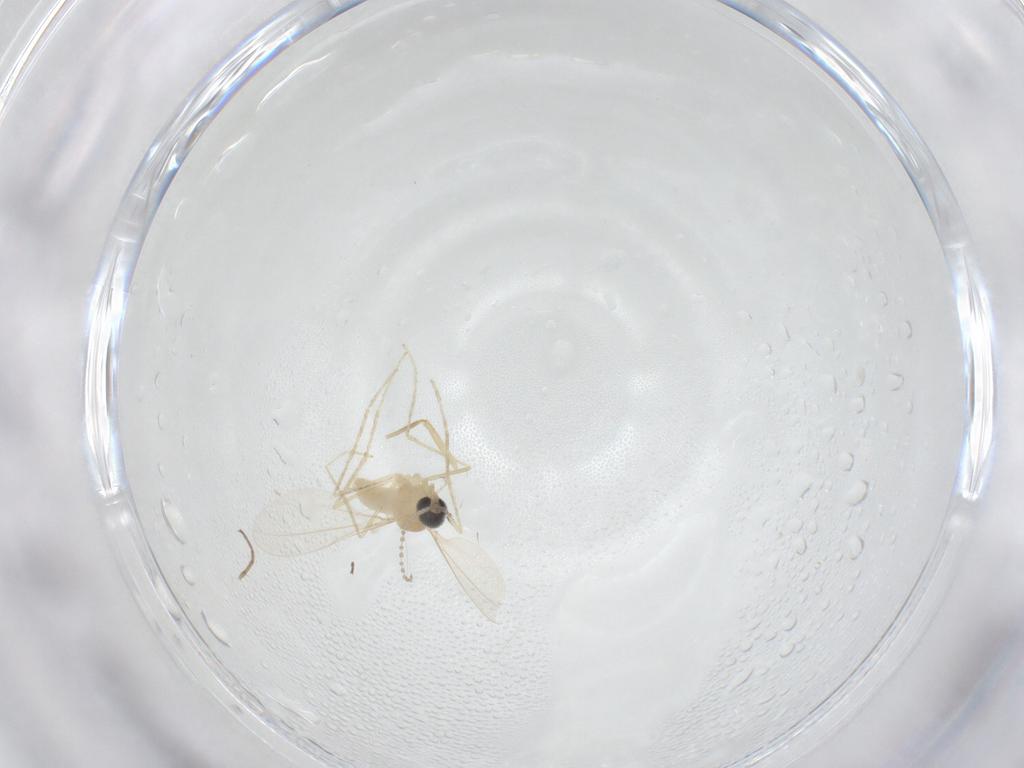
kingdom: Animalia
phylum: Arthropoda
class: Insecta
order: Diptera
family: Cecidomyiidae
